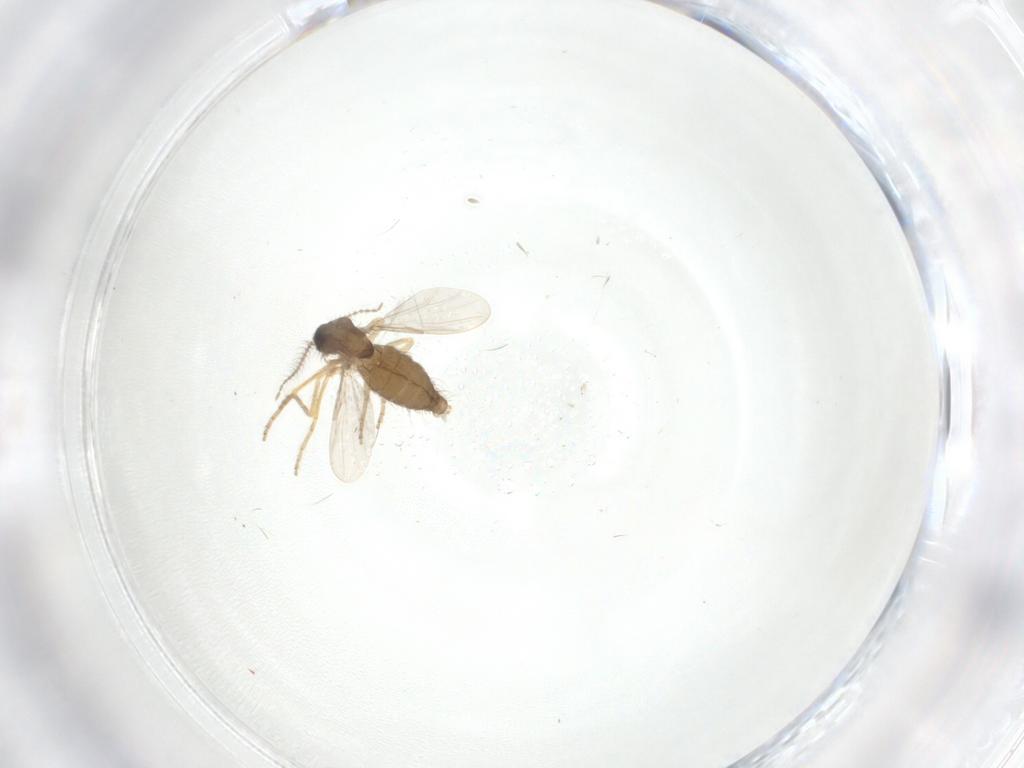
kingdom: Animalia
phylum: Arthropoda
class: Insecta
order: Diptera
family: Ceratopogonidae
